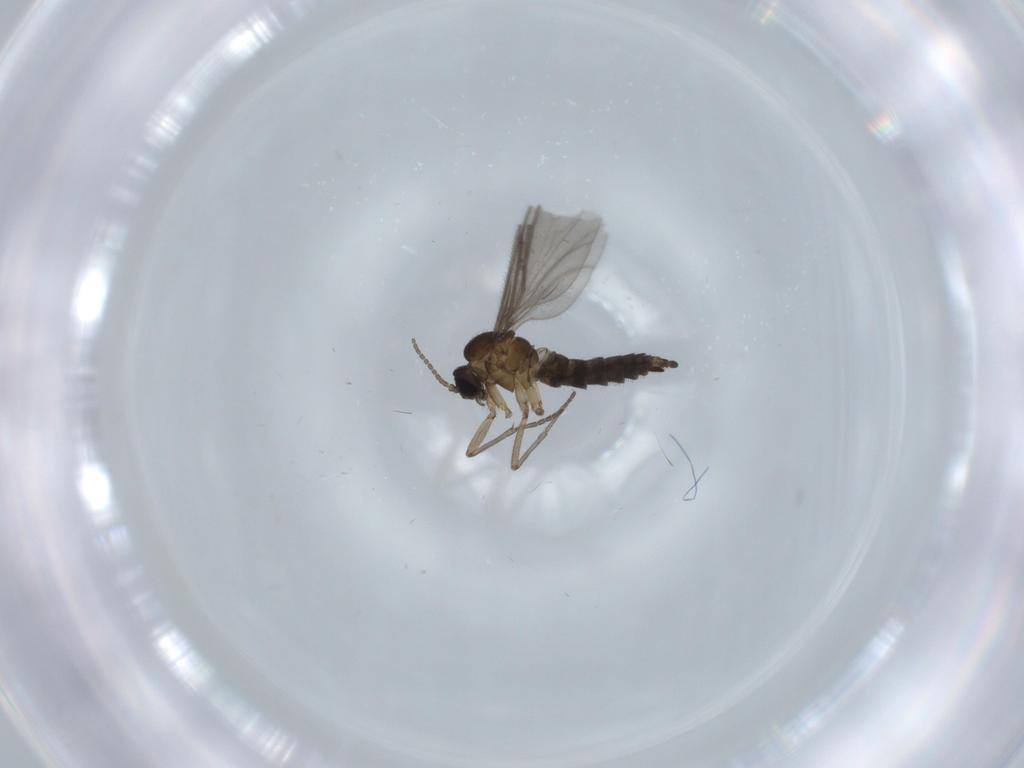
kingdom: Animalia
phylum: Arthropoda
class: Insecta
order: Diptera
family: Sciaridae
